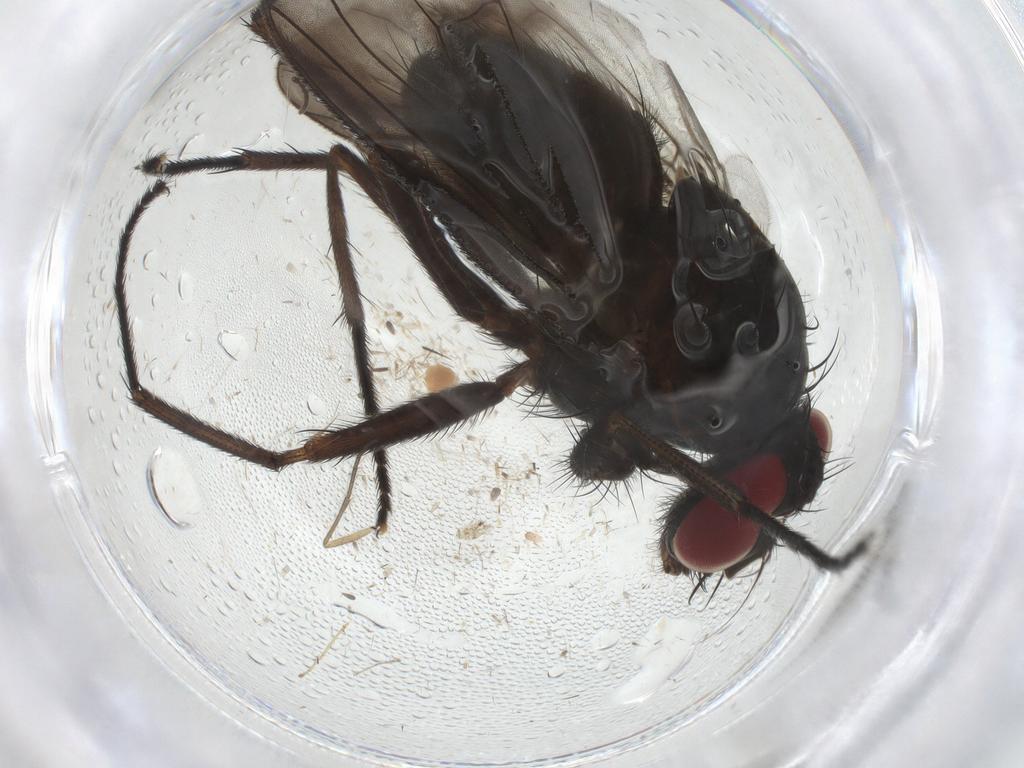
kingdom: Animalia
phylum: Arthropoda
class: Insecta
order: Diptera
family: Muscidae
